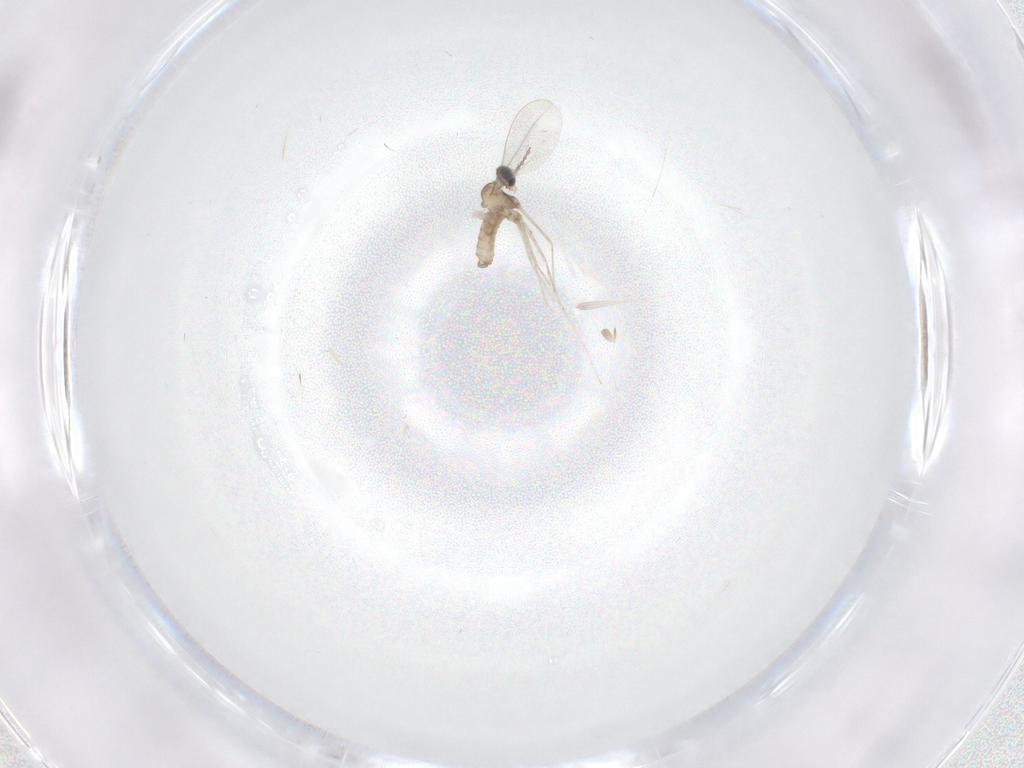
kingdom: Animalia
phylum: Arthropoda
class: Insecta
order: Diptera
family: Cecidomyiidae
